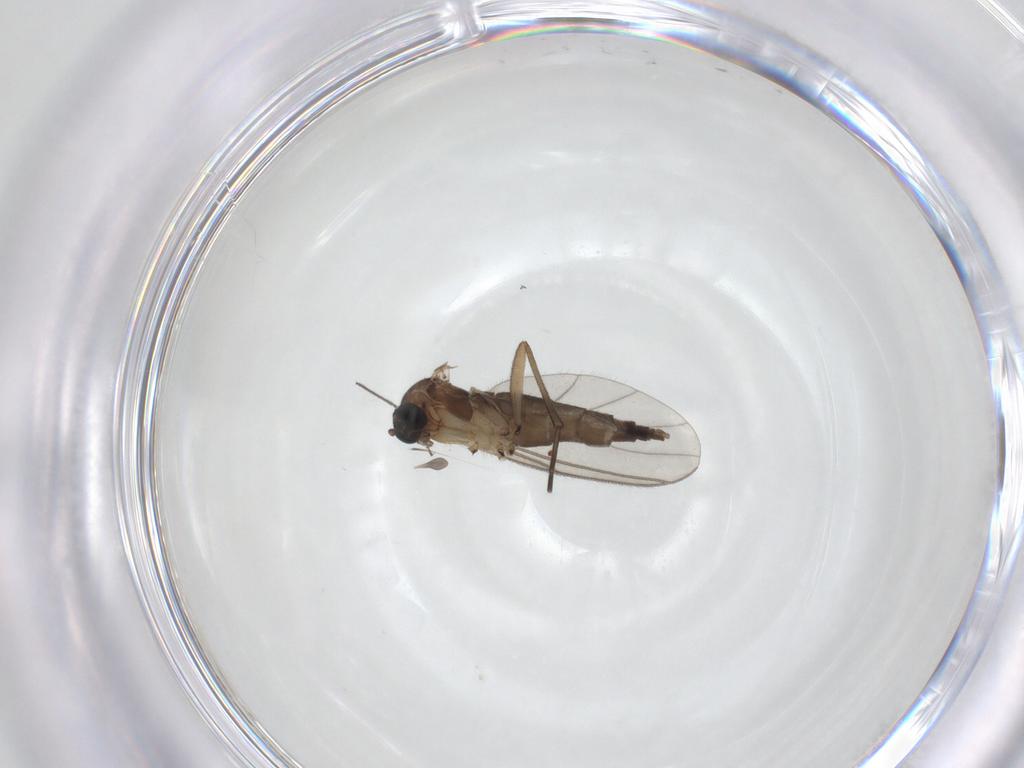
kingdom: Animalia
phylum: Arthropoda
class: Insecta
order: Diptera
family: Sciaridae
